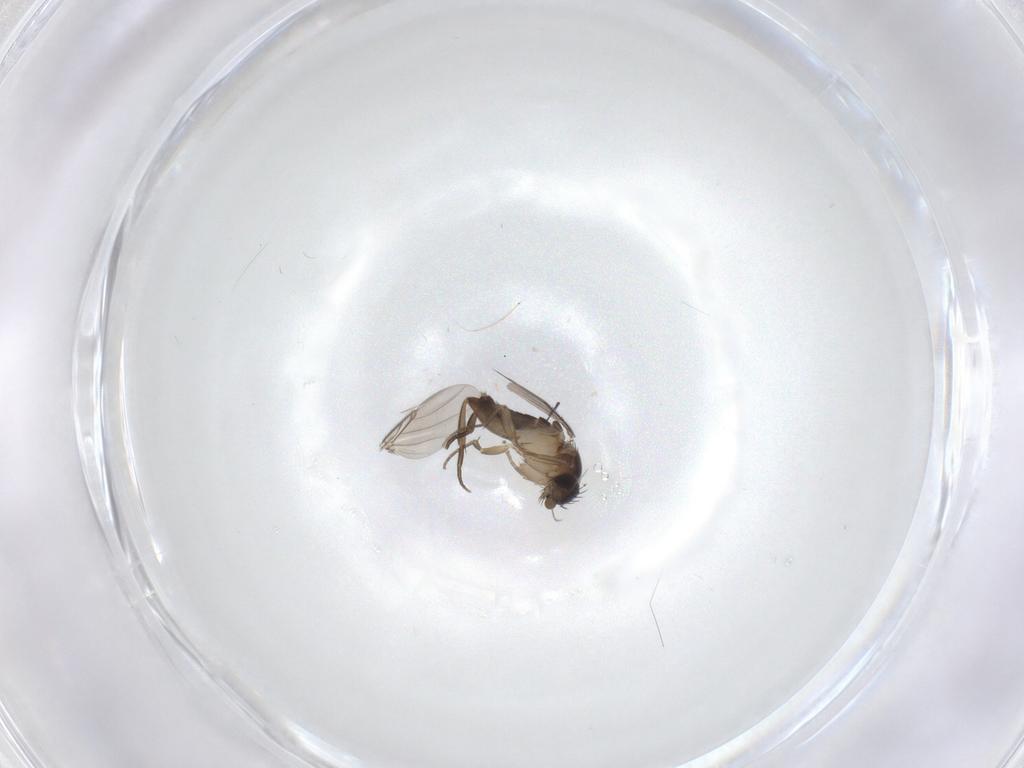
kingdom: Animalia
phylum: Arthropoda
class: Insecta
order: Diptera
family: Phoridae
